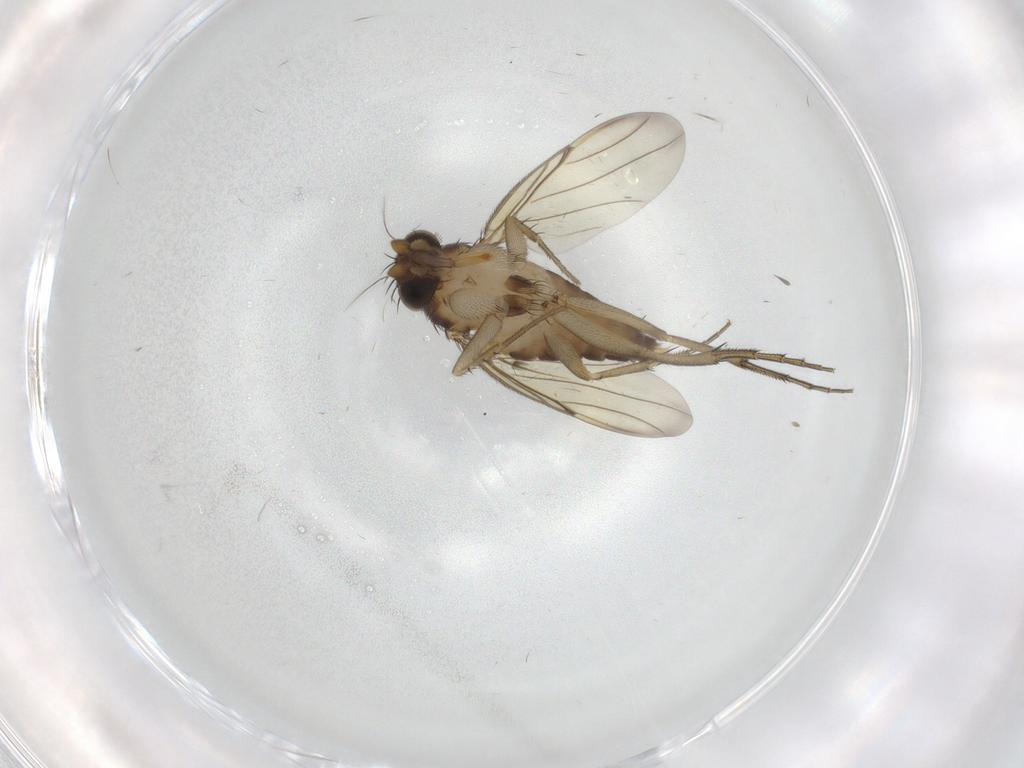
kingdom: Animalia
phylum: Arthropoda
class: Insecta
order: Diptera
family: Phoridae
